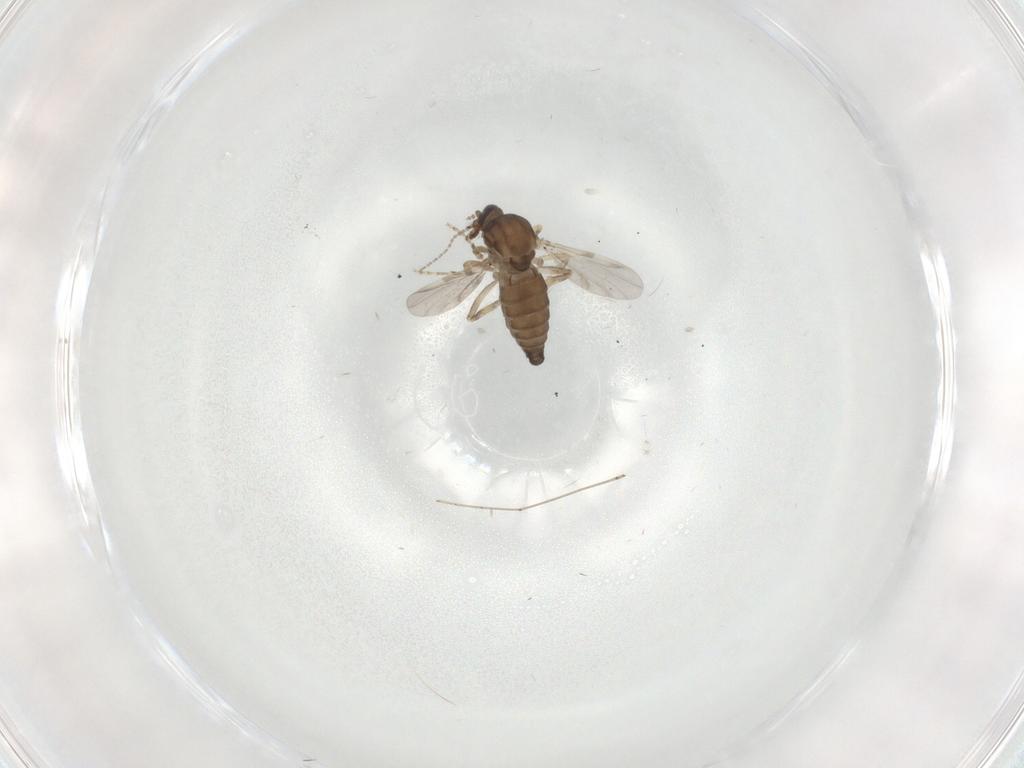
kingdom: Animalia
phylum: Arthropoda
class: Insecta
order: Diptera
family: Ceratopogonidae
